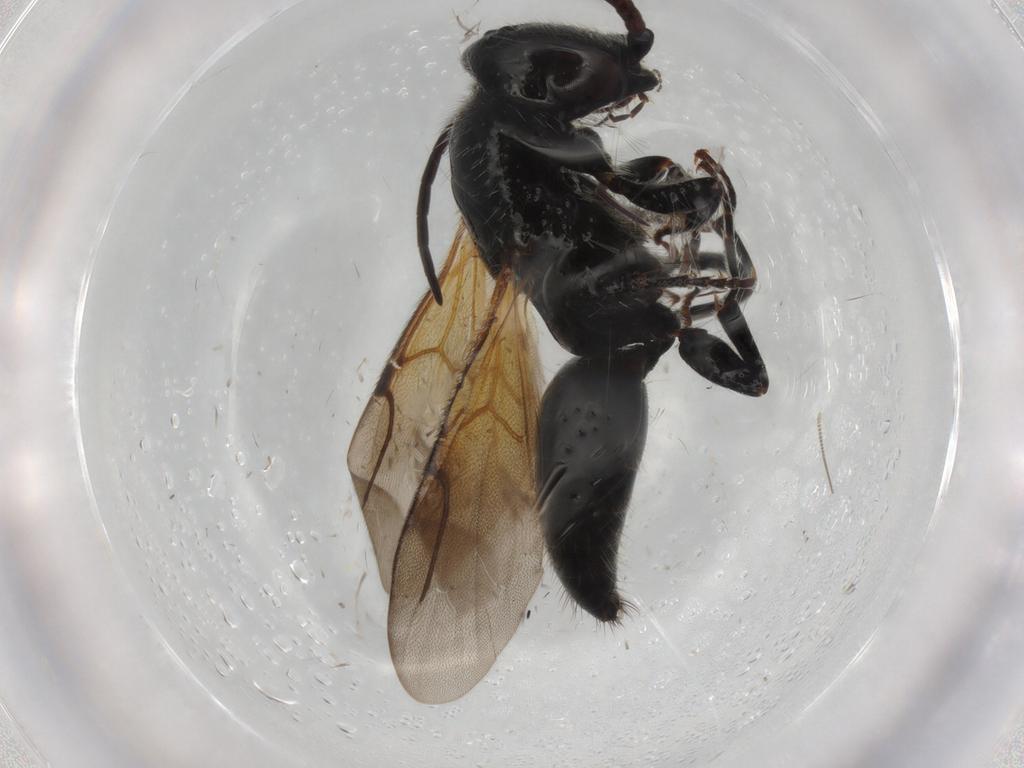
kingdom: Animalia
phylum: Arthropoda
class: Insecta
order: Hymenoptera
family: Bethylidae
